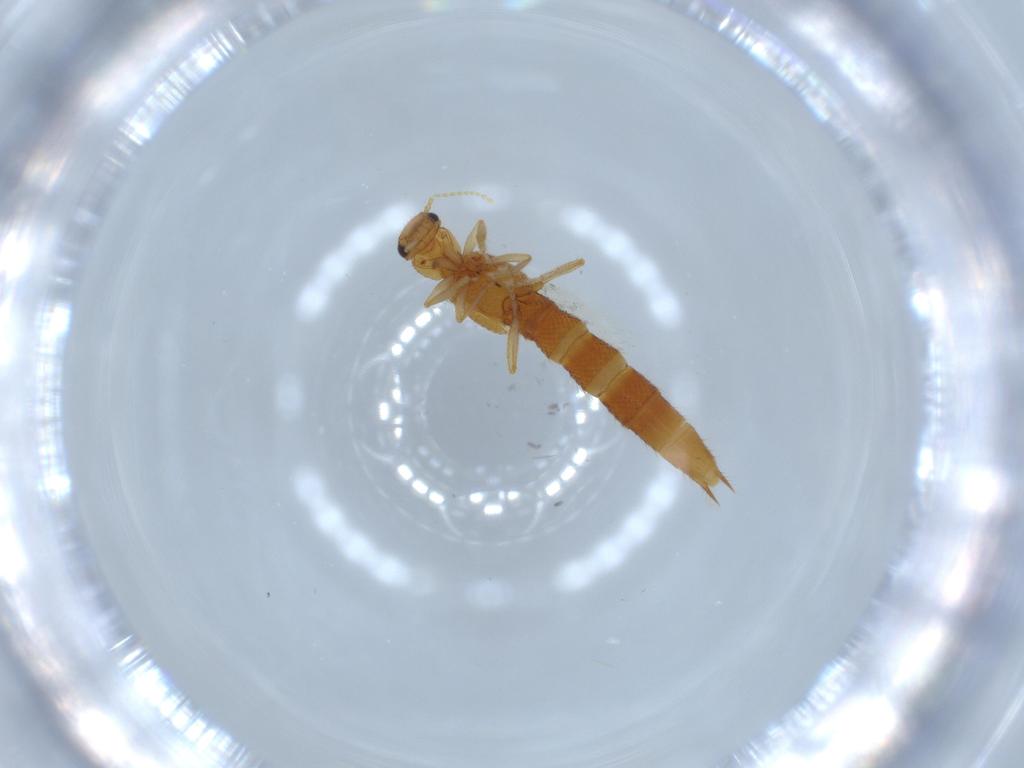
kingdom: Animalia
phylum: Arthropoda
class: Insecta
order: Coleoptera
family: Staphylinidae
